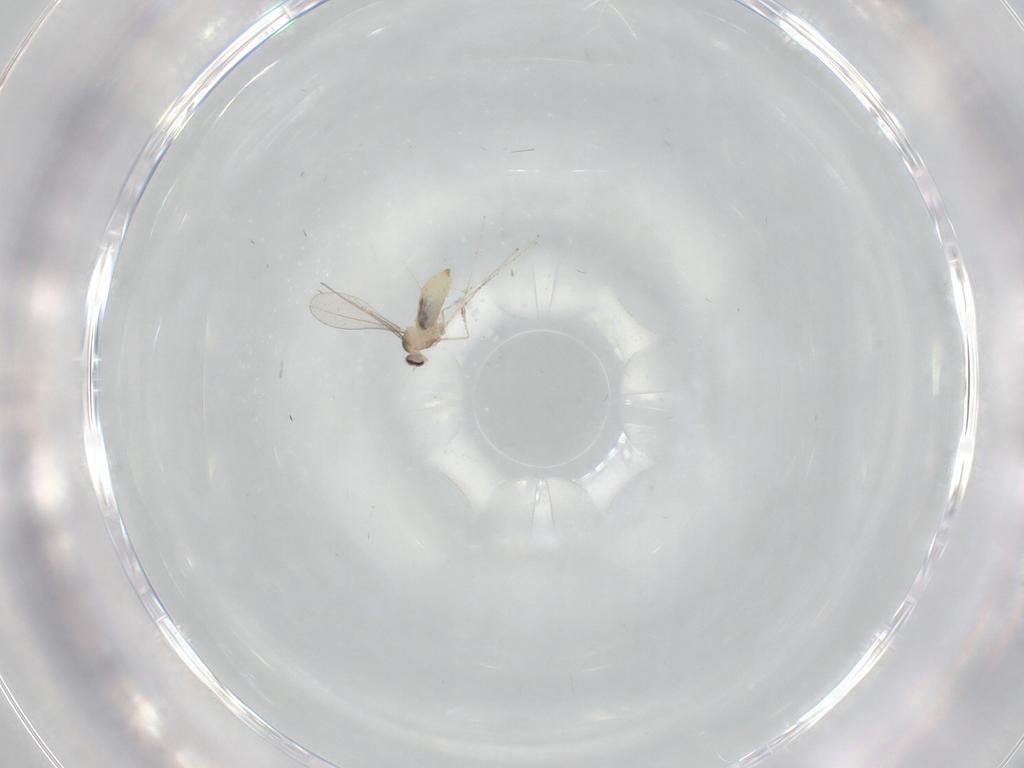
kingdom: Animalia
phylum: Arthropoda
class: Insecta
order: Diptera
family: Cecidomyiidae
